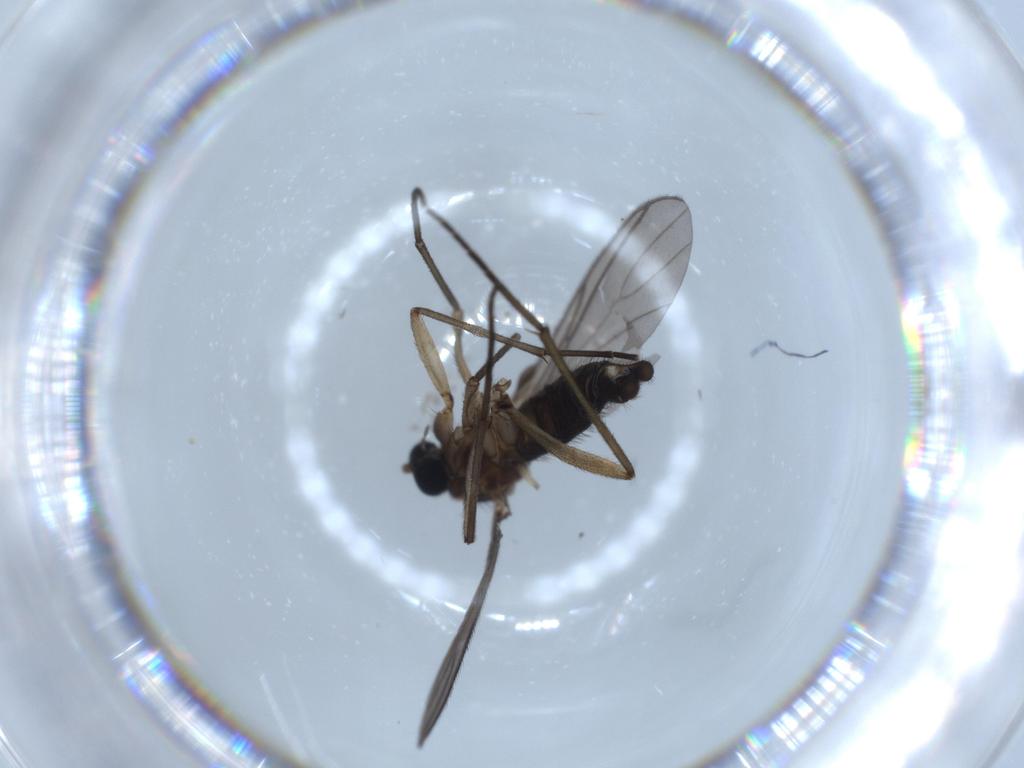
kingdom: Animalia
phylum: Arthropoda
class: Insecta
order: Diptera
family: Sciaridae
